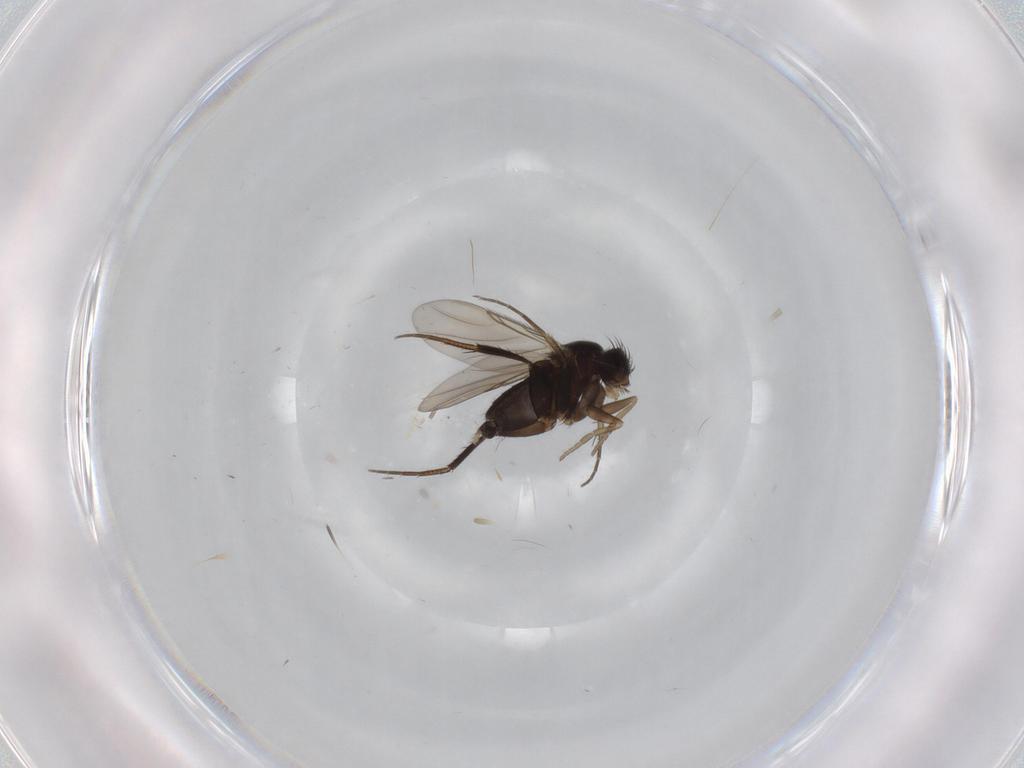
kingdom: Animalia
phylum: Arthropoda
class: Insecta
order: Diptera
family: Phoridae
